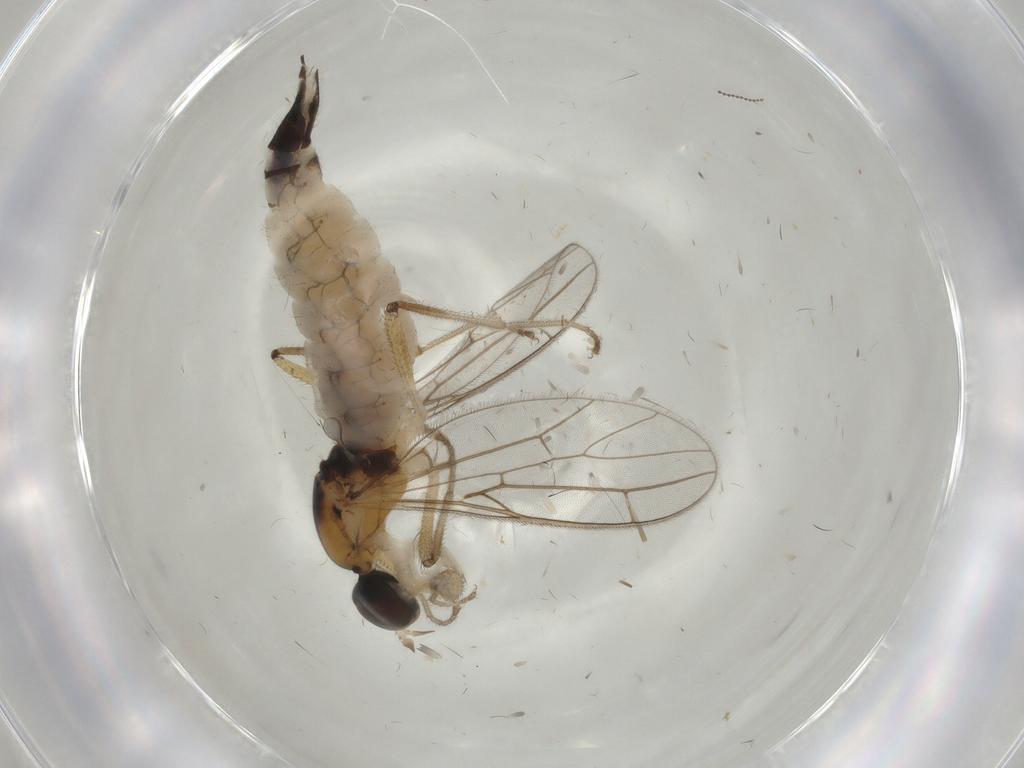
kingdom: Animalia
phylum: Arthropoda
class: Insecta
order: Diptera
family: Empididae
